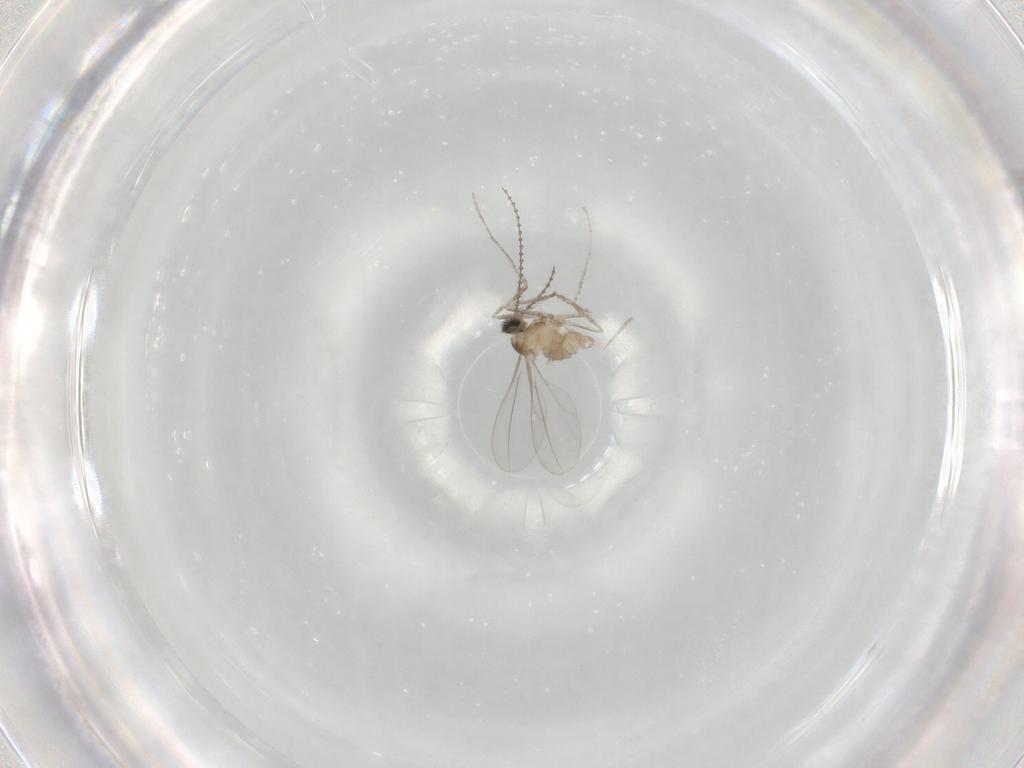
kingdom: Animalia
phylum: Arthropoda
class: Insecta
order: Diptera
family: Cecidomyiidae
